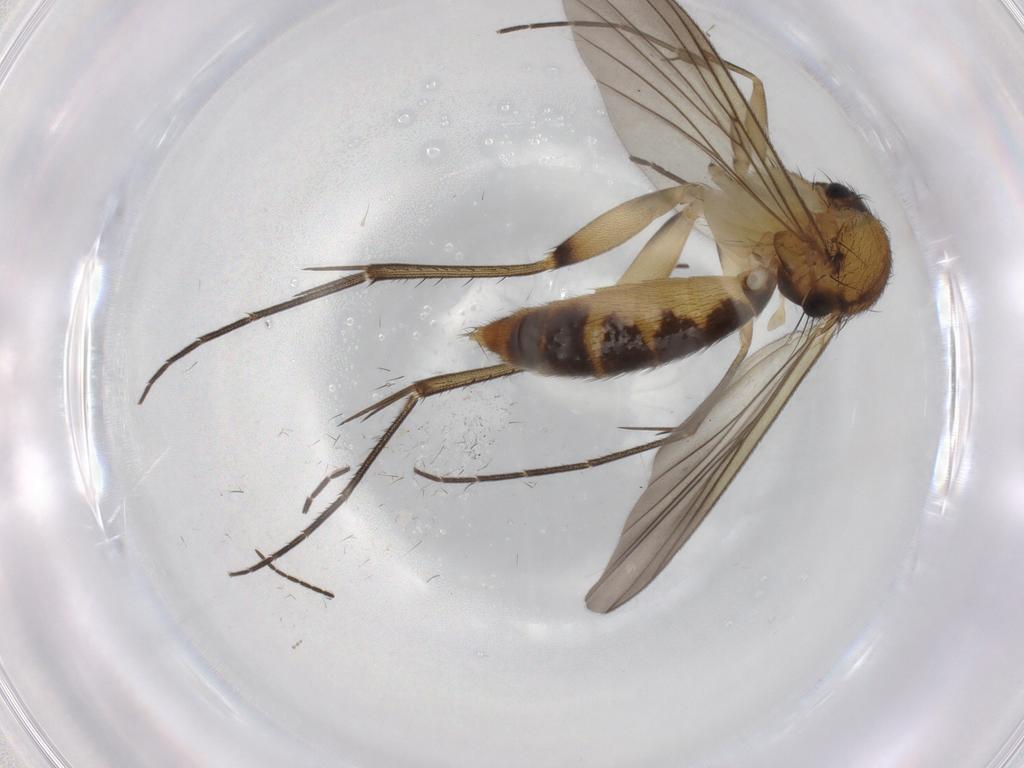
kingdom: Animalia
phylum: Arthropoda
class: Insecta
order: Diptera
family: Mycetophilidae
